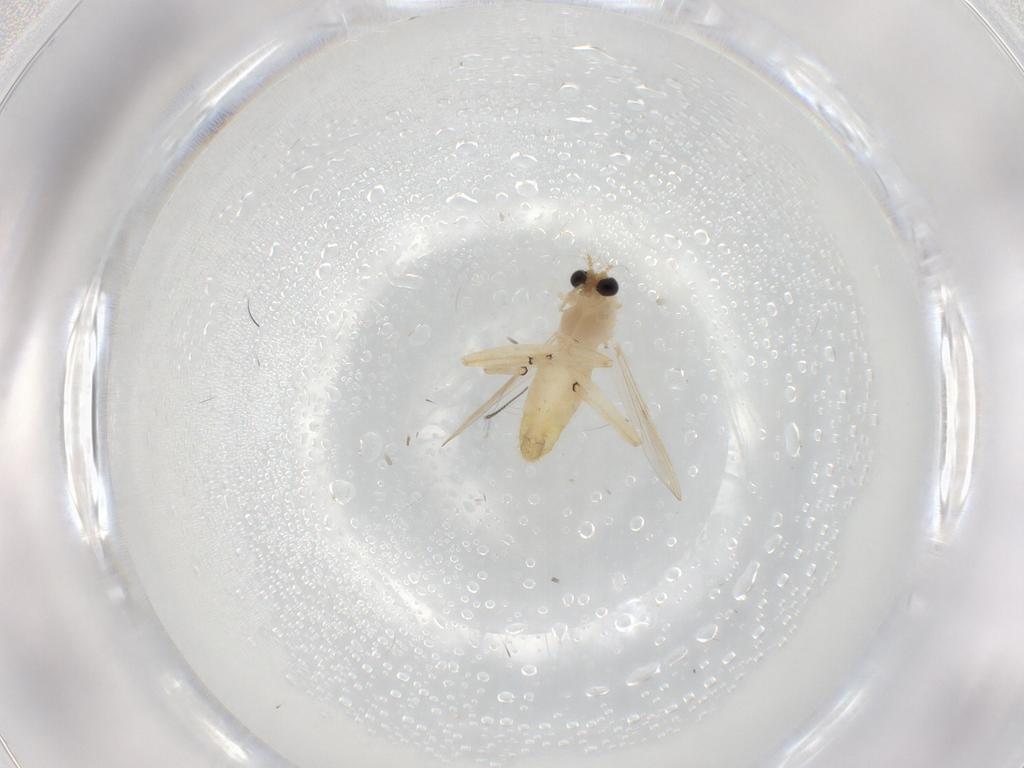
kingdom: Animalia
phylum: Arthropoda
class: Insecta
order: Diptera
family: Chironomidae
